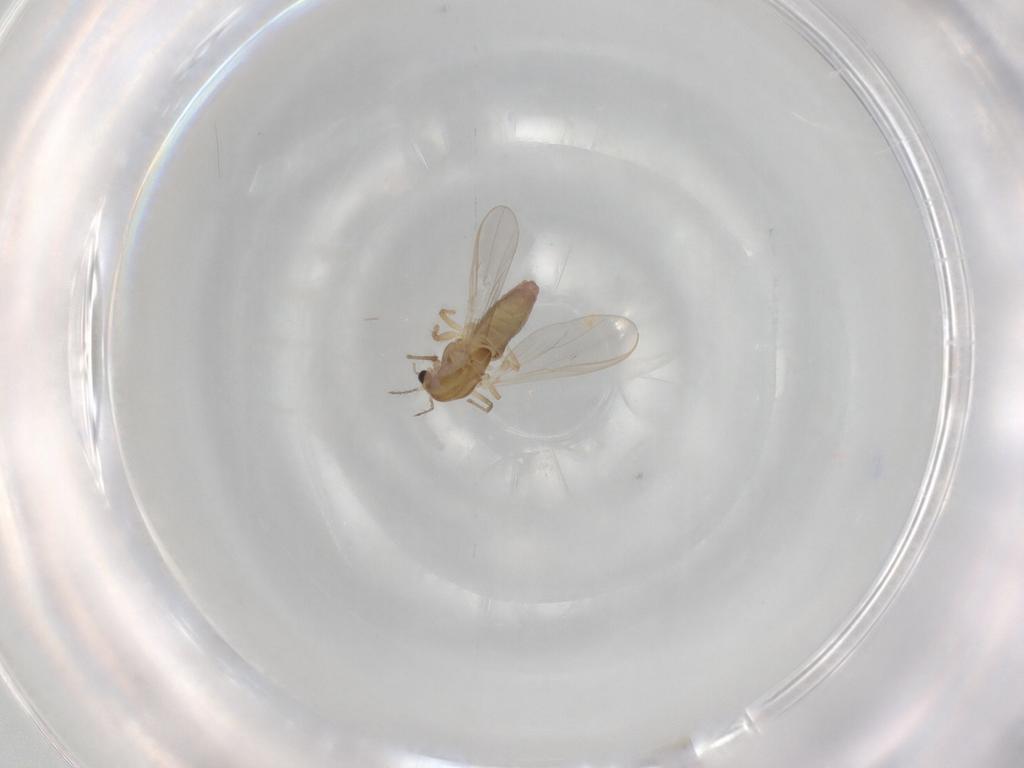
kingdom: Animalia
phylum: Arthropoda
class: Insecta
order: Diptera
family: Chironomidae
